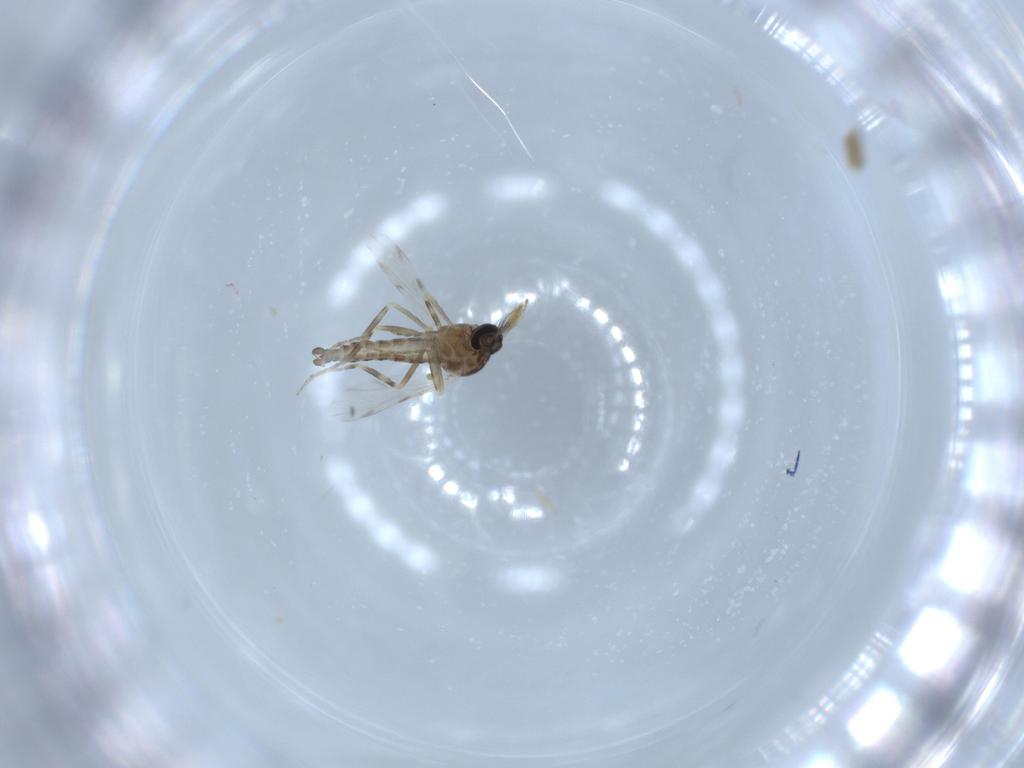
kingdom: Animalia
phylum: Arthropoda
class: Insecta
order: Diptera
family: Ceratopogonidae
